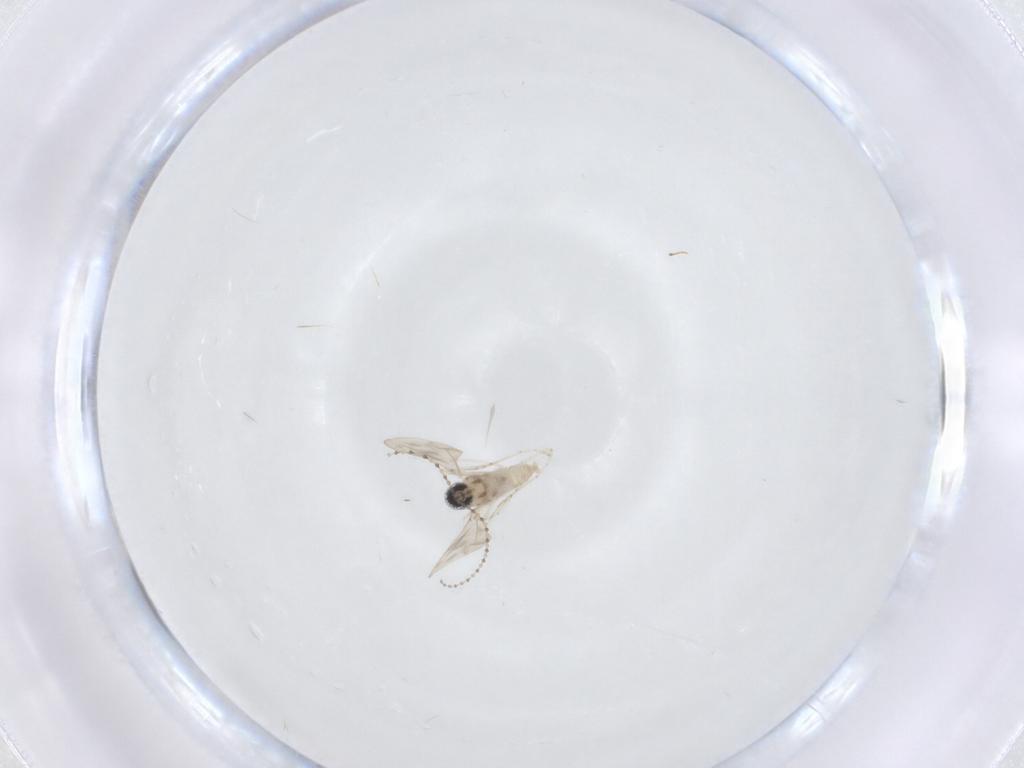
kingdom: Animalia
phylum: Arthropoda
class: Insecta
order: Diptera
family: Cecidomyiidae
